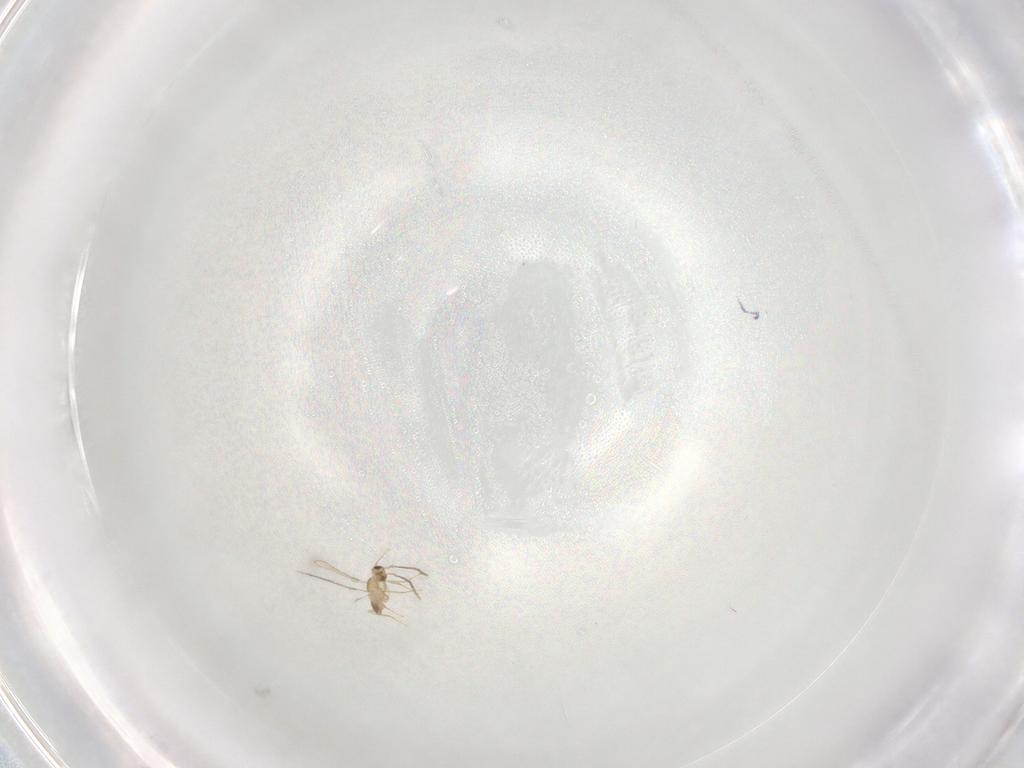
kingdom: Animalia
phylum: Arthropoda
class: Insecta
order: Hymenoptera
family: Mymaridae
